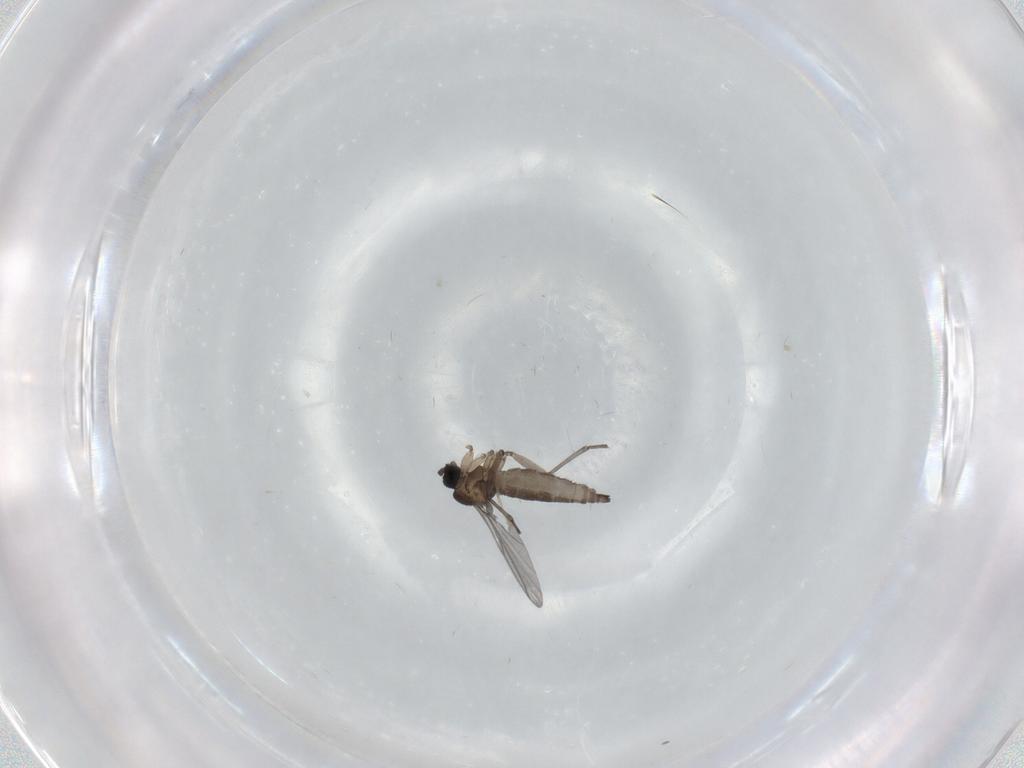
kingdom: Animalia
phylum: Arthropoda
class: Insecta
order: Diptera
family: Sciaridae
